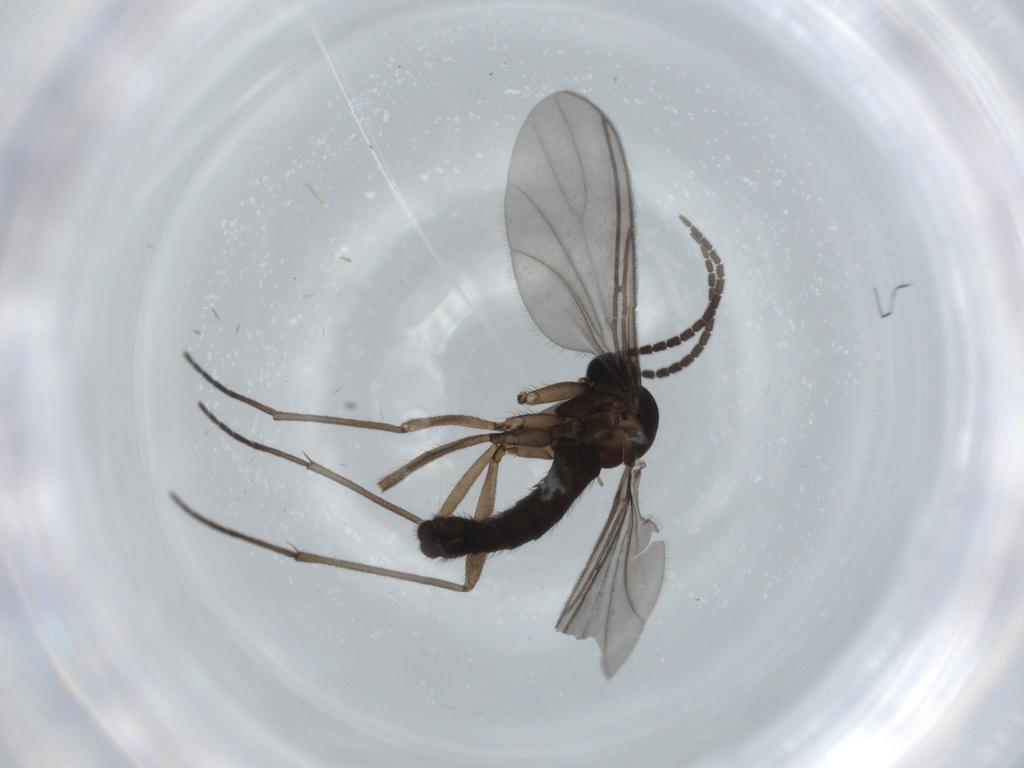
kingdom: Animalia
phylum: Arthropoda
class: Insecta
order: Diptera
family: Sciaridae
